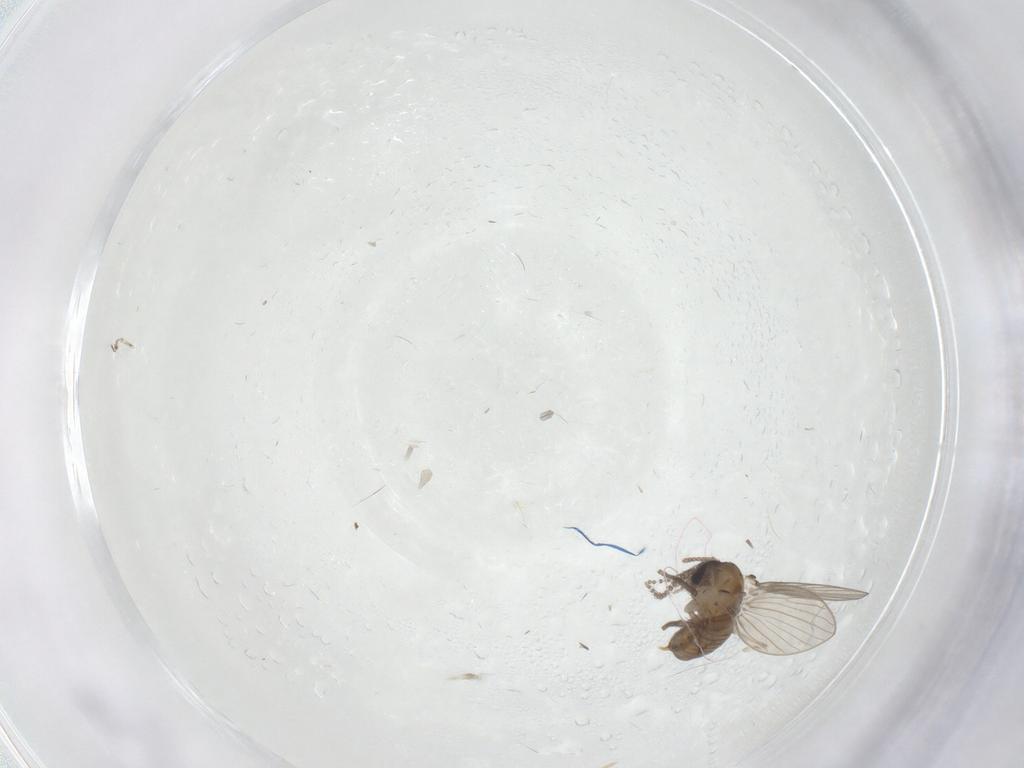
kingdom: Animalia
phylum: Arthropoda
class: Insecta
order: Diptera
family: Psychodidae
